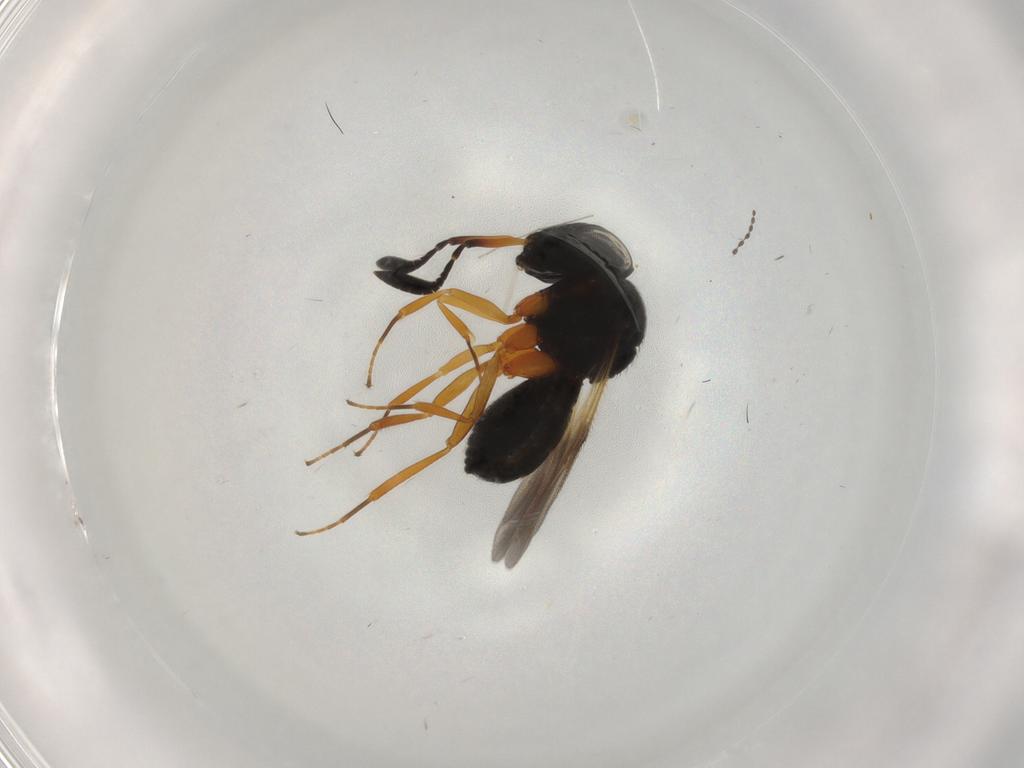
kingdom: Animalia
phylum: Arthropoda
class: Insecta
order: Hymenoptera
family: Scelionidae
